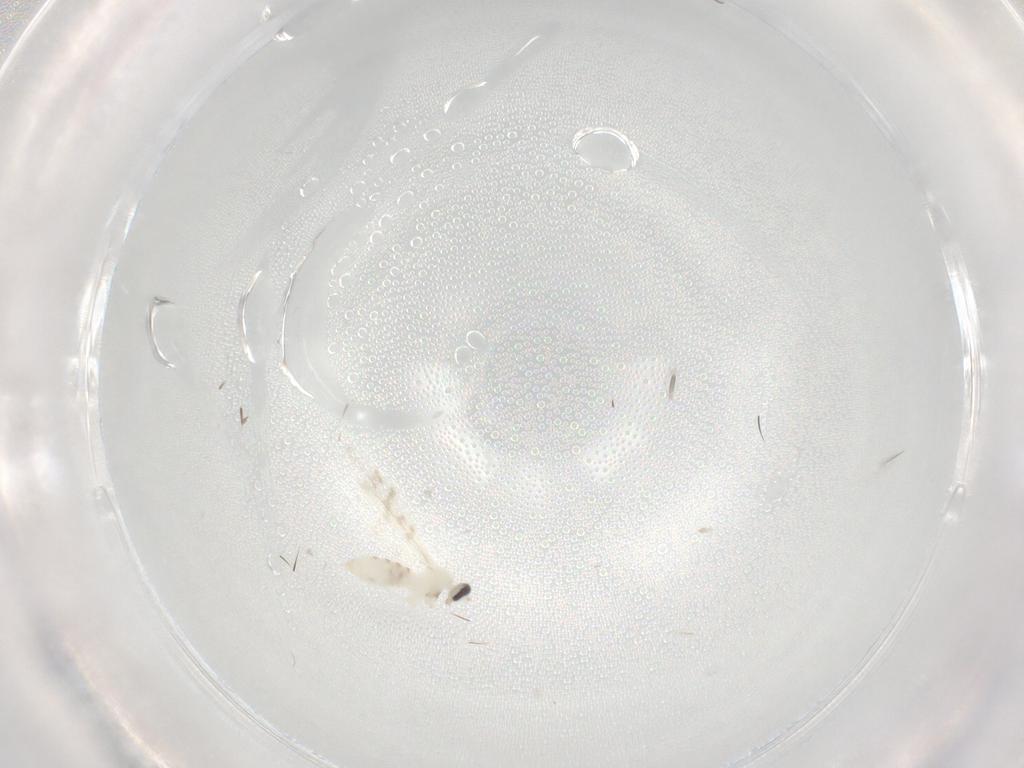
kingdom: Animalia
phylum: Arthropoda
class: Insecta
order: Diptera
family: Cecidomyiidae
